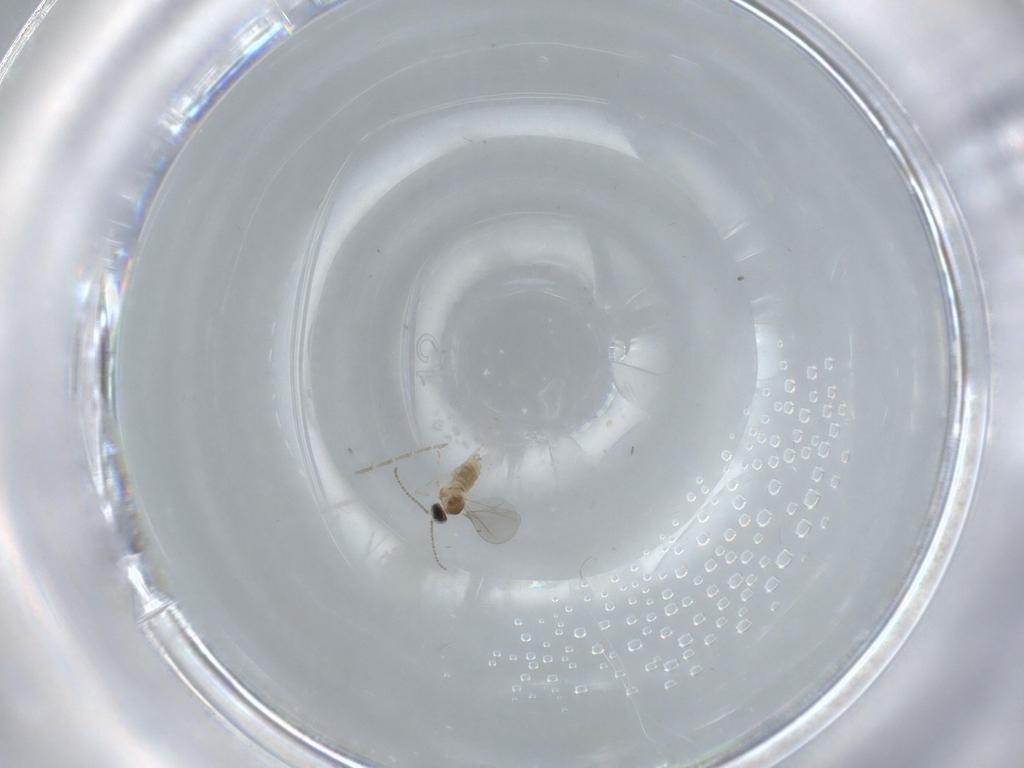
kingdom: Animalia
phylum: Arthropoda
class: Insecta
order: Diptera
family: Cecidomyiidae
